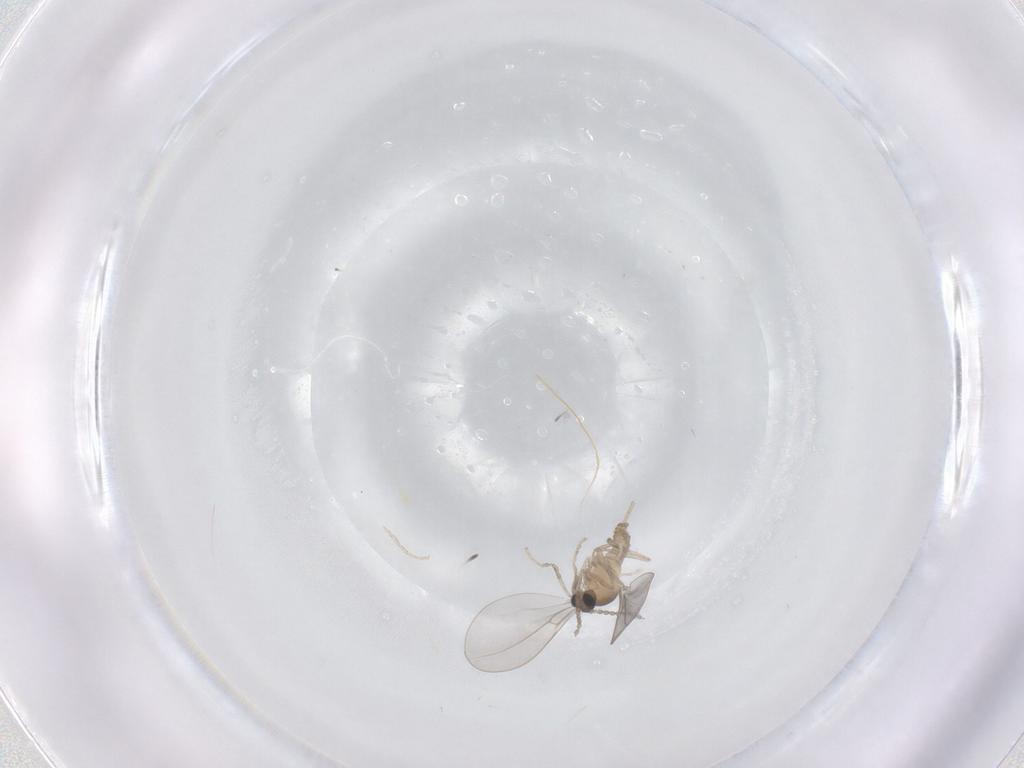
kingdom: Animalia
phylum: Arthropoda
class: Insecta
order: Diptera
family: Cecidomyiidae
